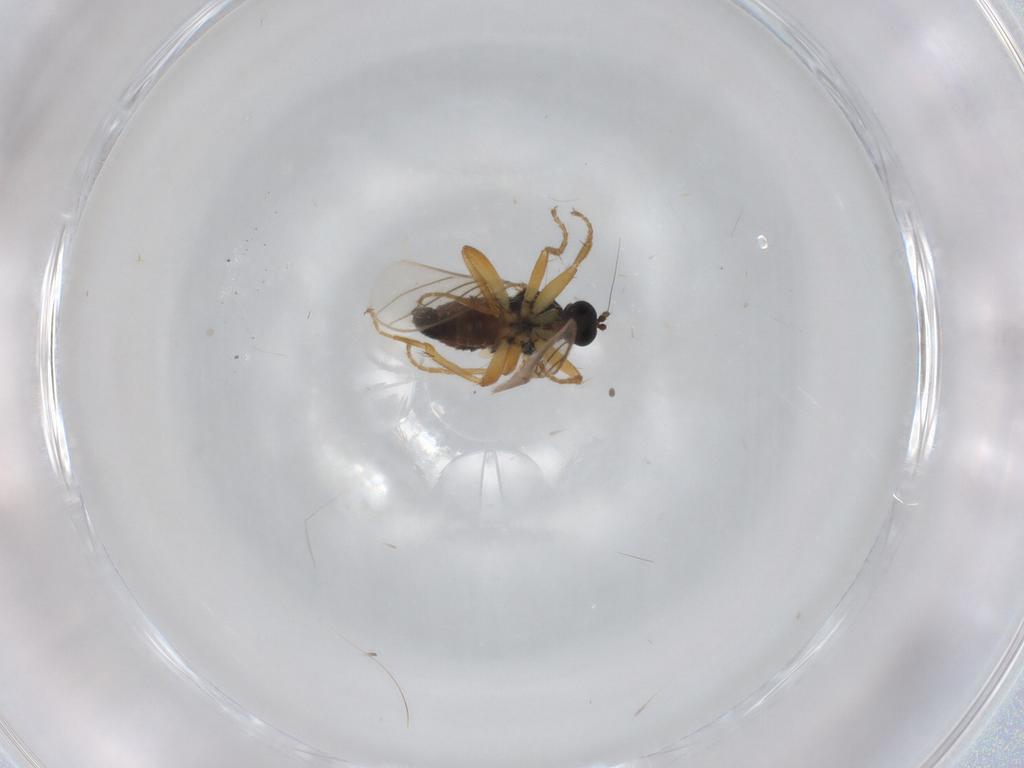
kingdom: Animalia
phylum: Arthropoda
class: Insecta
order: Diptera
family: Hybotidae
